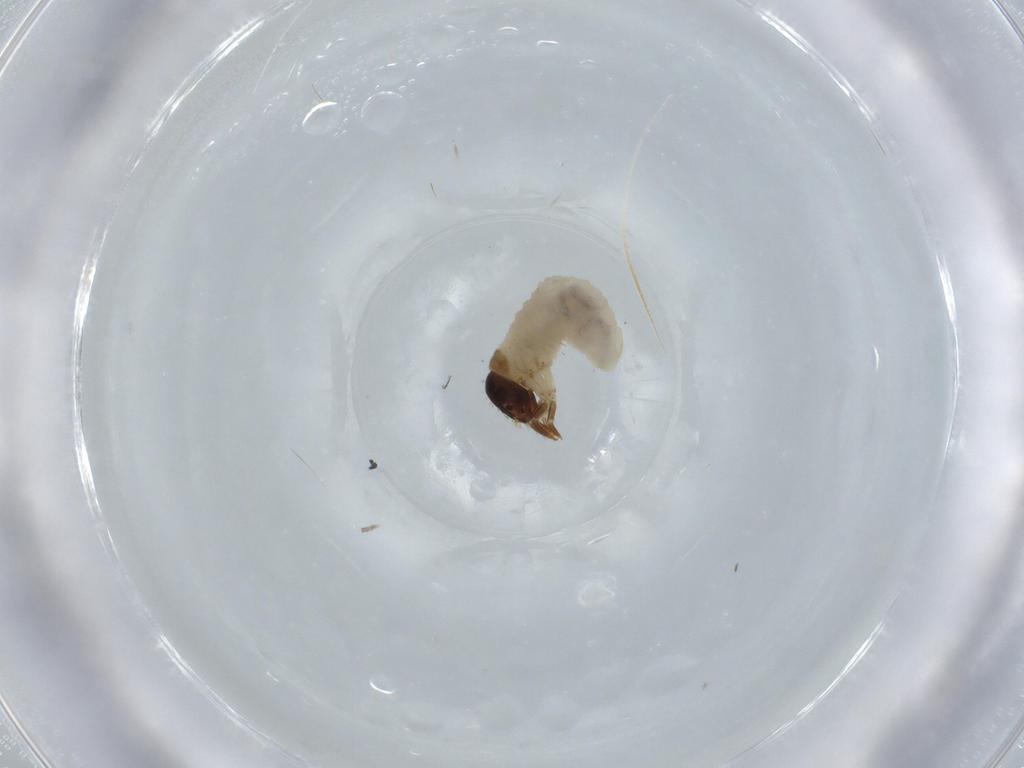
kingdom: Animalia
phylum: Arthropoda
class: Insecta
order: Coleoptera
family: Chrysomelidae
